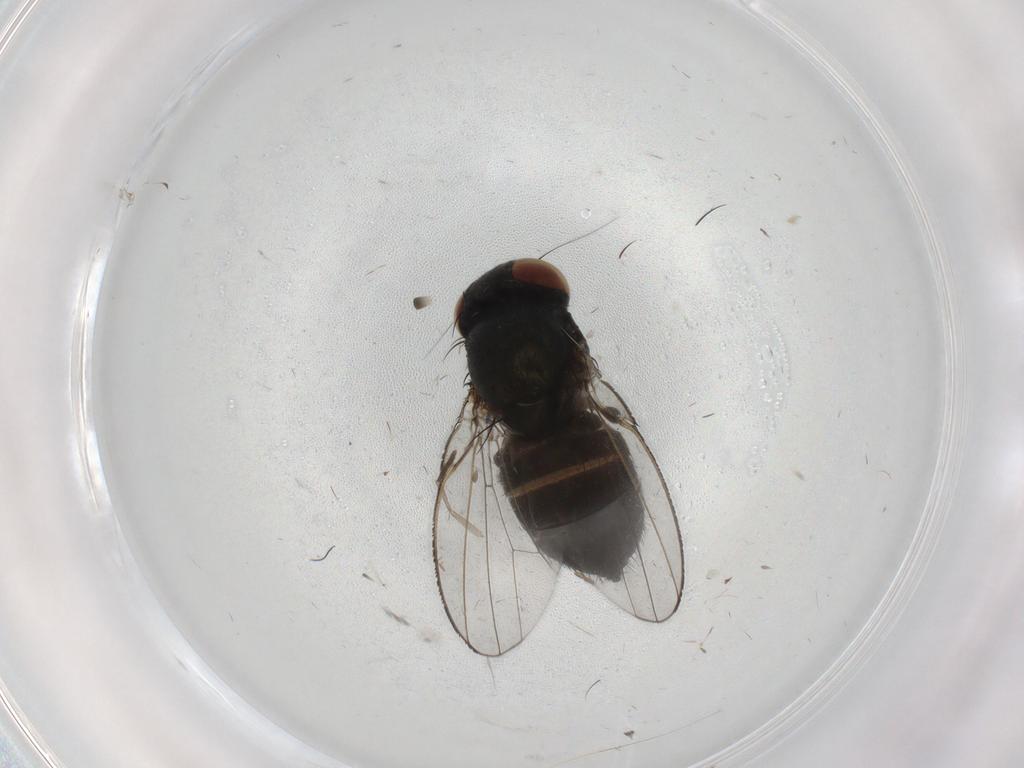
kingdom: Animalia
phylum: Arthropoda
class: Insecta
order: Diptera
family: Milichiidae
